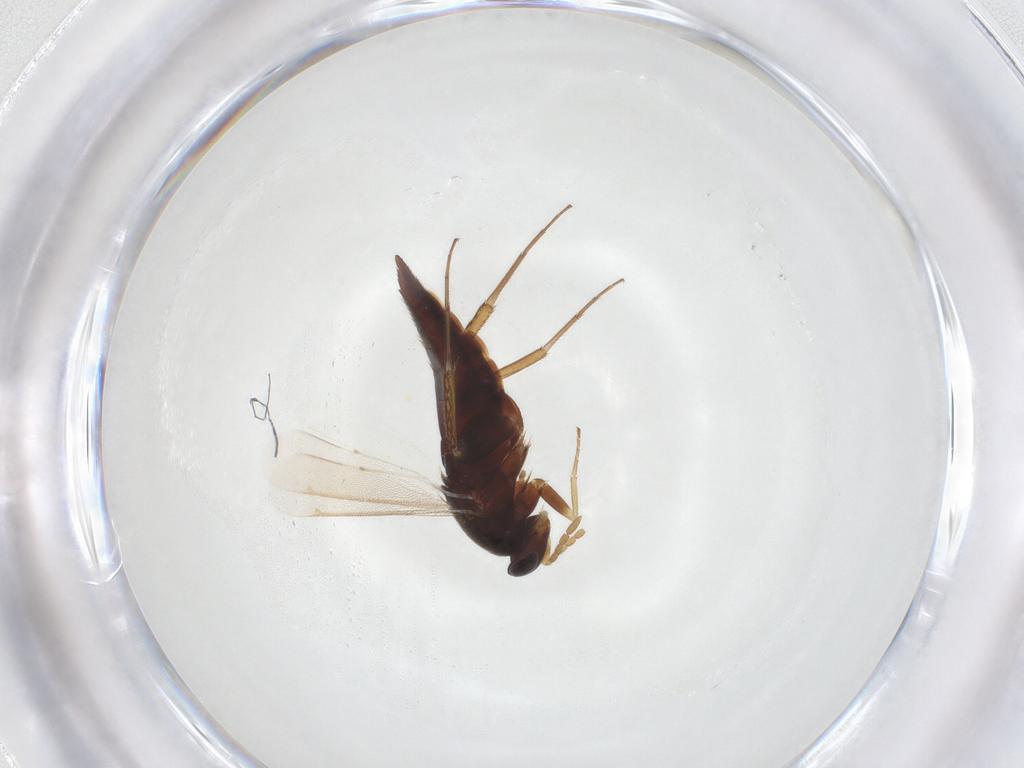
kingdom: Animalia
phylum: Arthropoda
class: Insecta
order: Hymenoptera
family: Eulophidae
